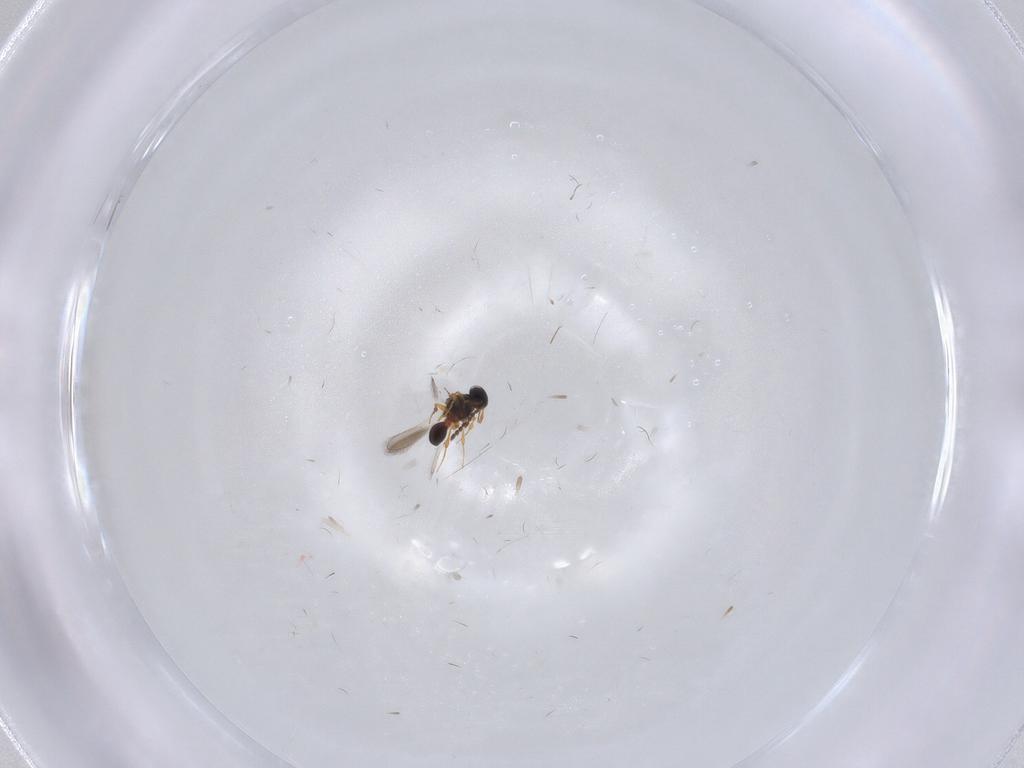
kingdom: Animalia
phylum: Arthropoda
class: Insecta
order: Hymenoptera
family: Platygastridae
